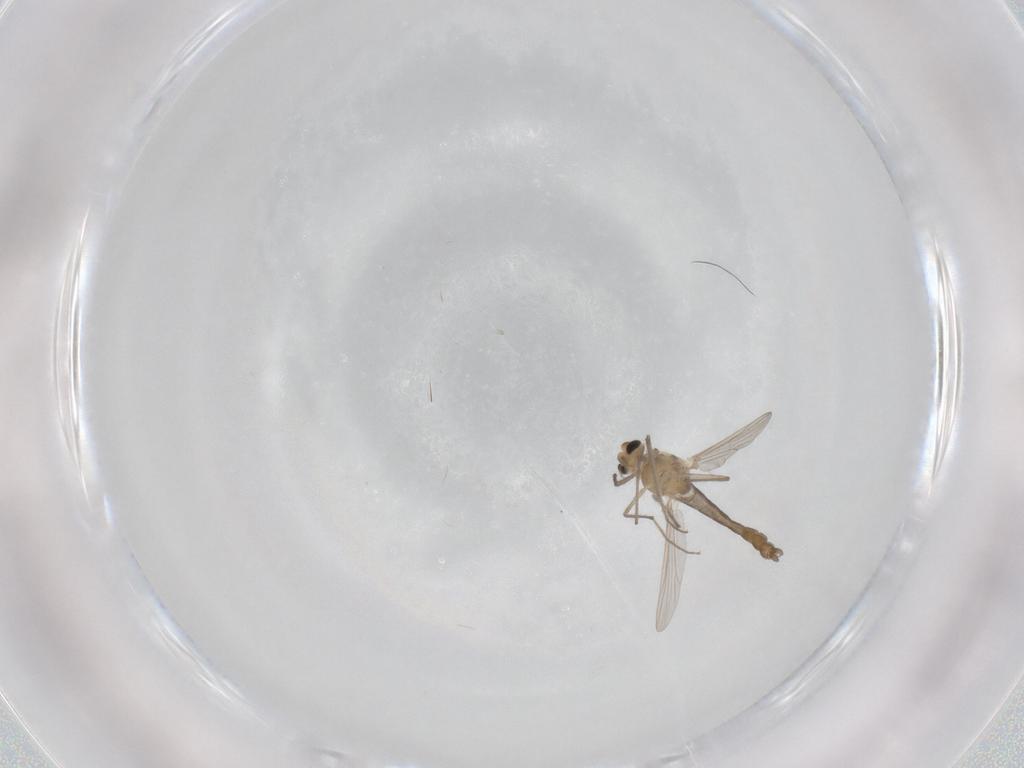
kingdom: Animalia
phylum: Arthropoda
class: Insecta
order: Diptera
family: Chironomidae
